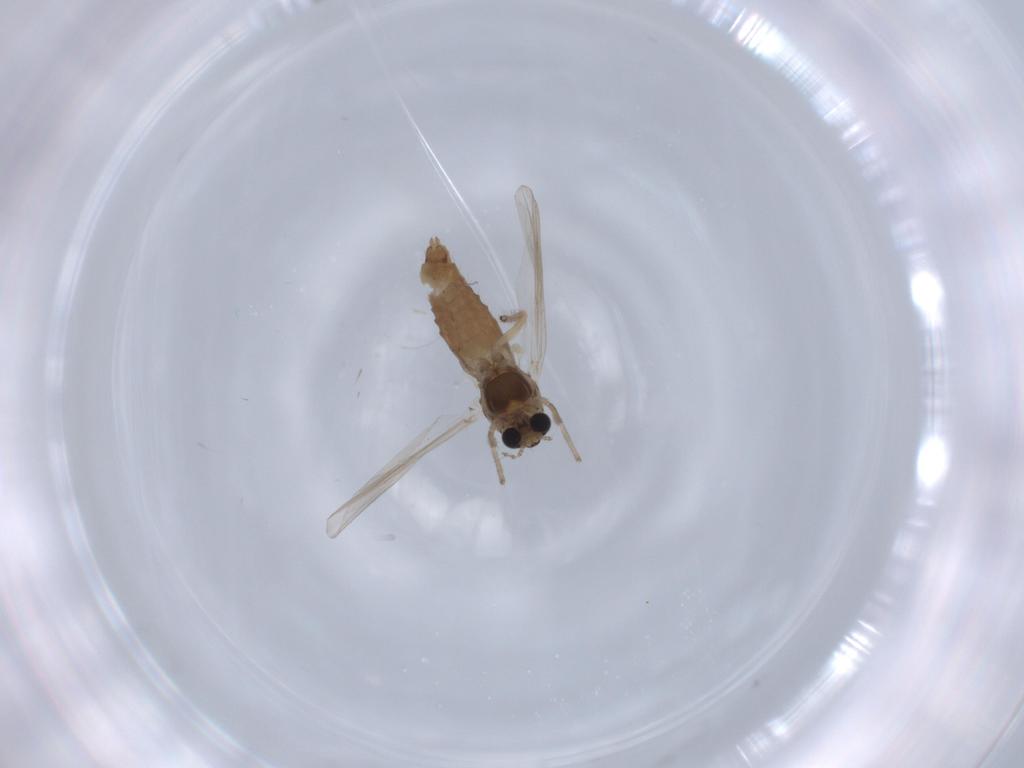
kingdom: Animalia
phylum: Arthropoda
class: Insecta
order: Diptera
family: Chironomidae
